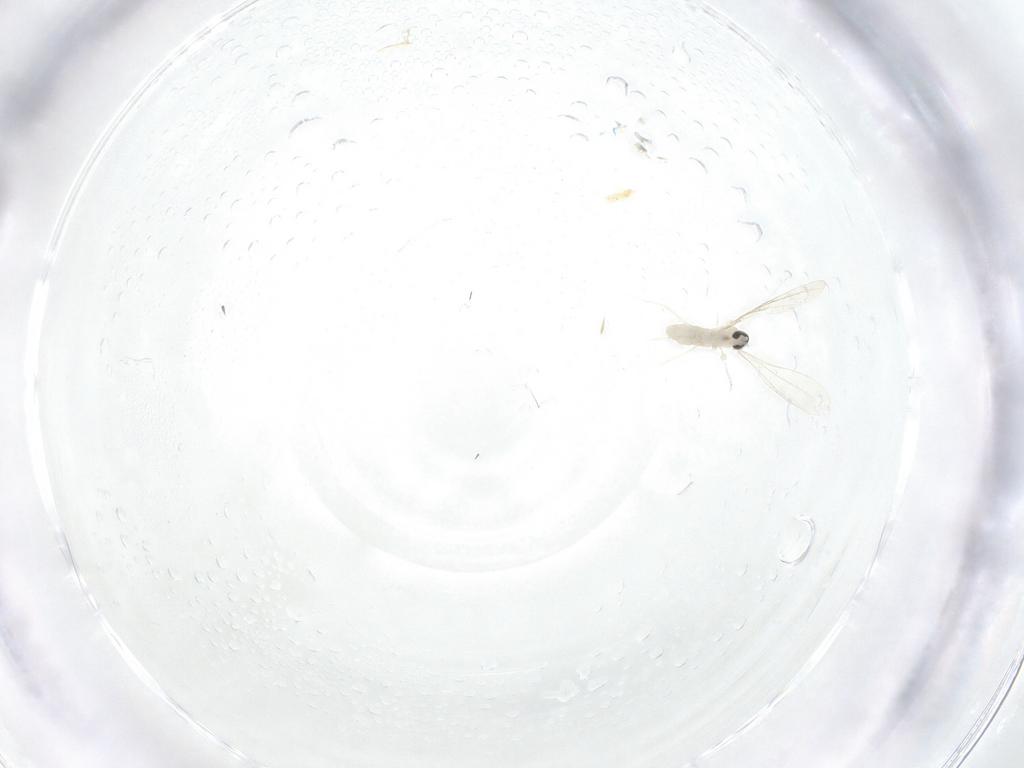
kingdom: Animalia
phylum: Arthropoda
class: Insecta
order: Diptera
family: Cecidomyiidae
